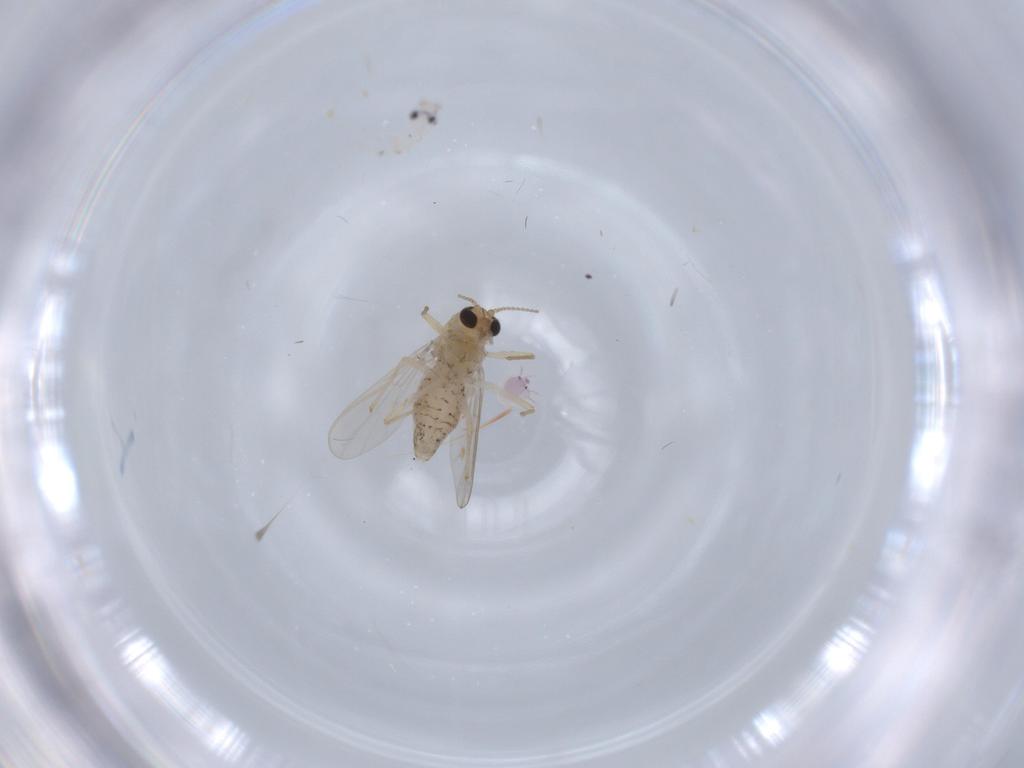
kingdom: Animalia
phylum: Arthropoda
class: Insecta
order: Diptera
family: Chironomidae
